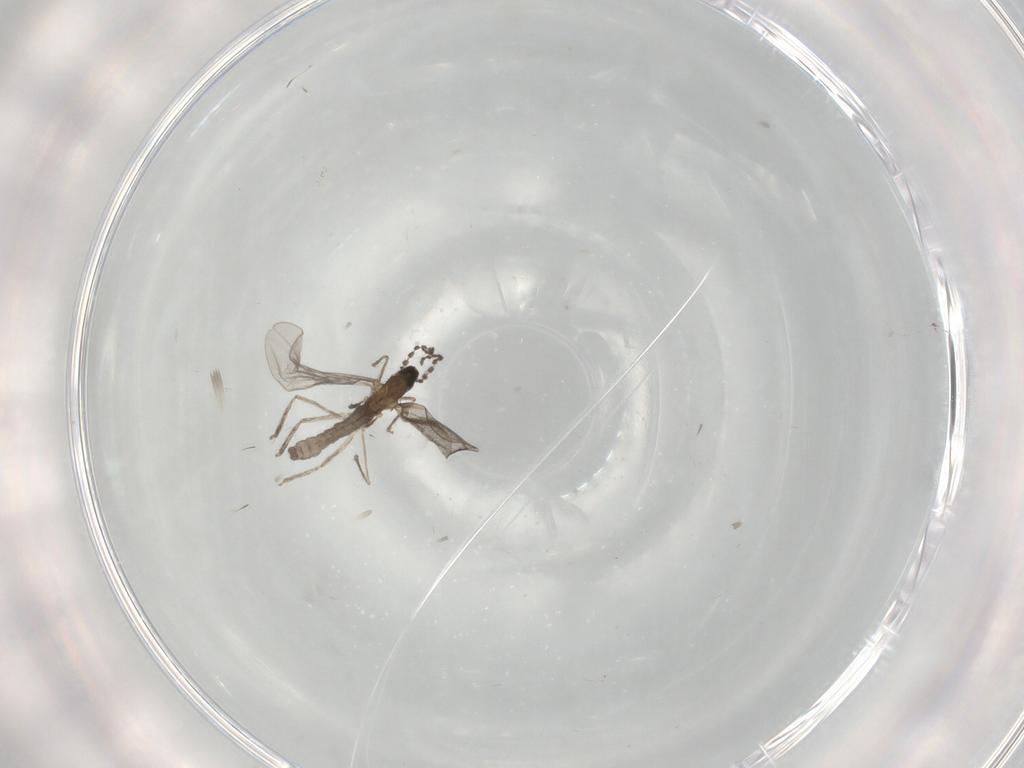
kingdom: Animalia
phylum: Arthropoda
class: Insecta
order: Diptera
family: Cecidomyiidae
